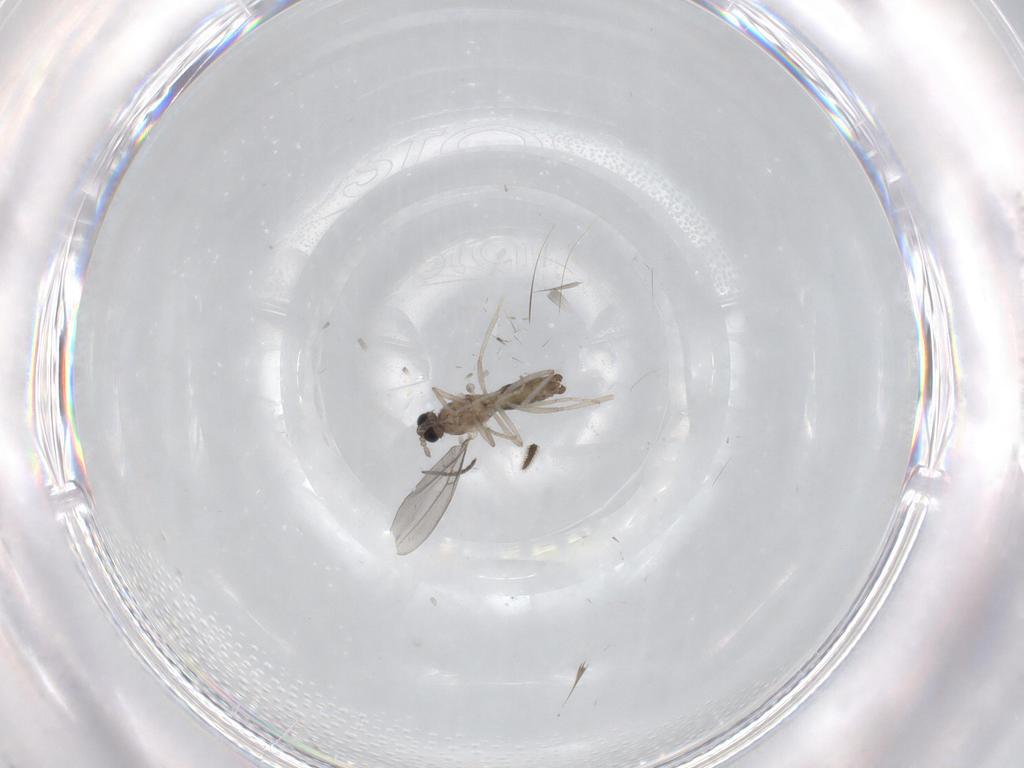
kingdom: Animalia
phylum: Arthropoda
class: Insecta
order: Diptera
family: Cecidomyiidae
